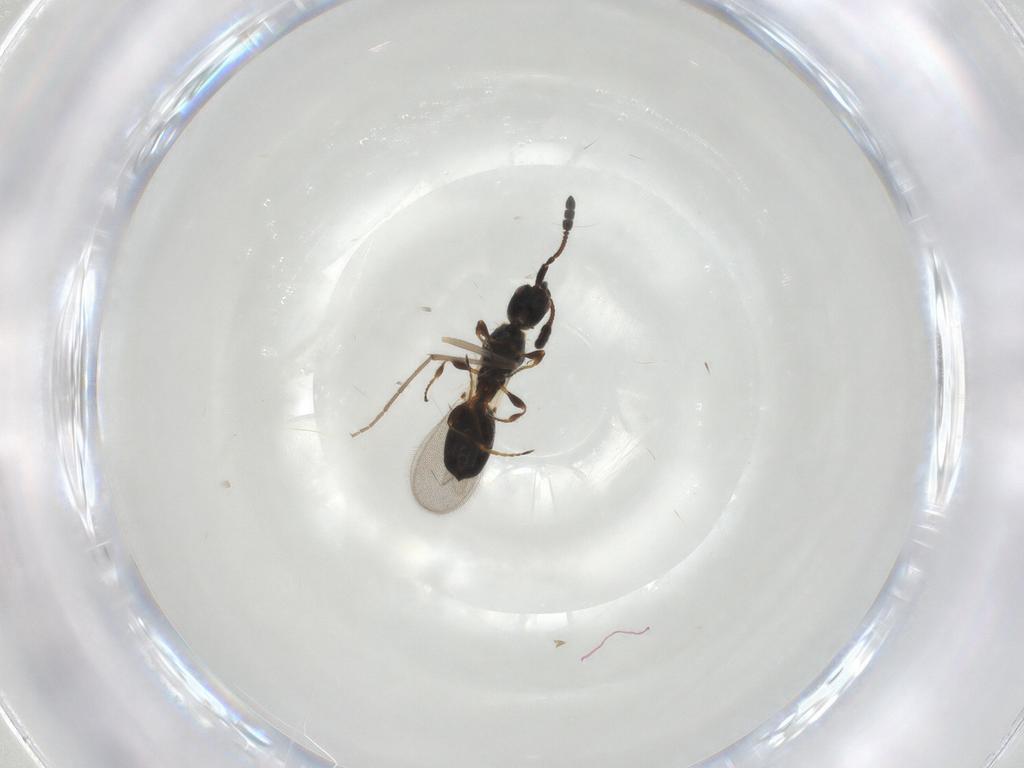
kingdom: Animalia
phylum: Arthropoda
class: Insecta
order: Hymenoptera
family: Diapriidae
